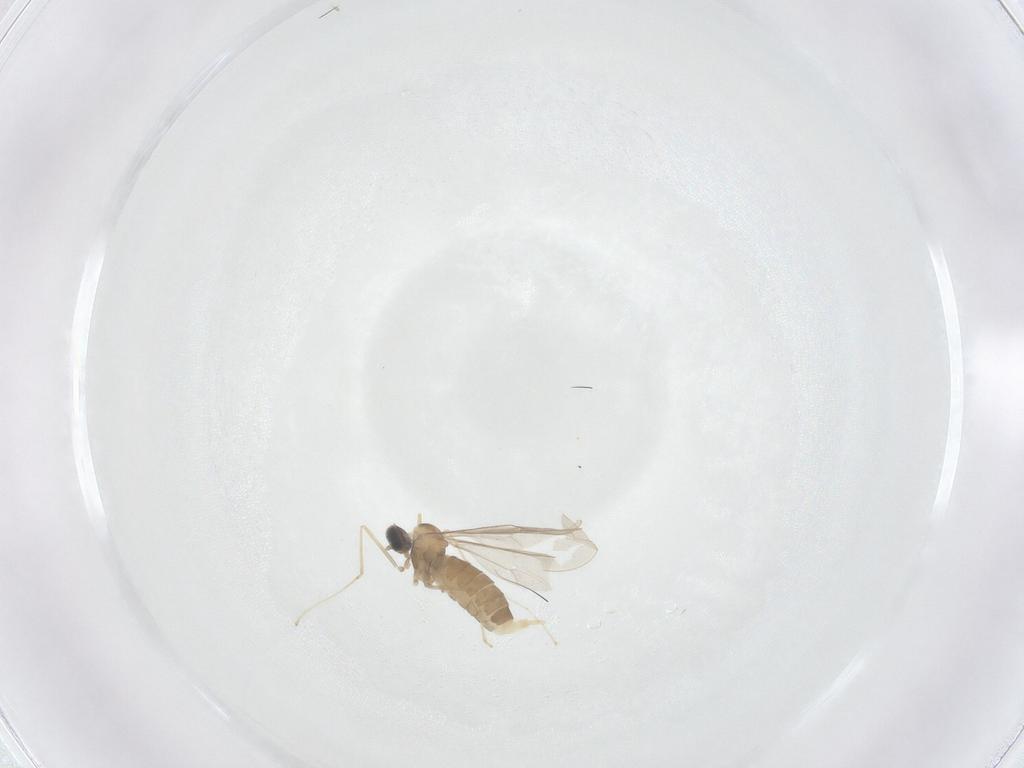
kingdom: Animalia
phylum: Arthropoda
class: Insecta
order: Diptera
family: Cecidomyiidae
